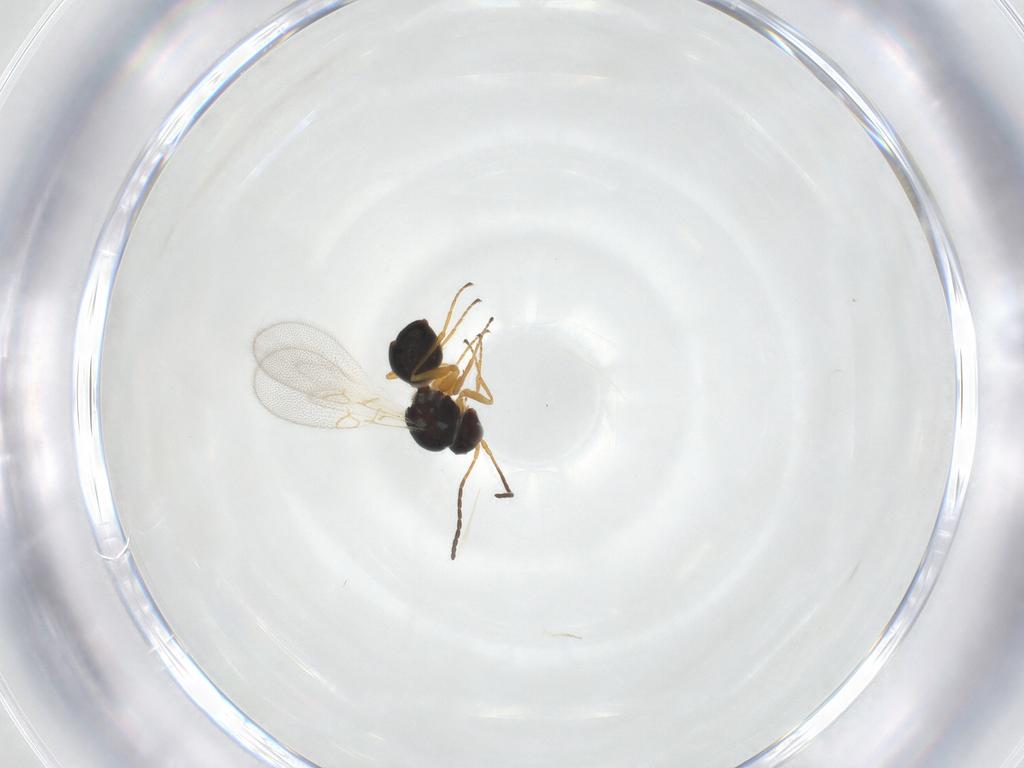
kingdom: Animalia
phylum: Arthropoda
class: Insecta
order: Hymenoptera
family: Figitidae
